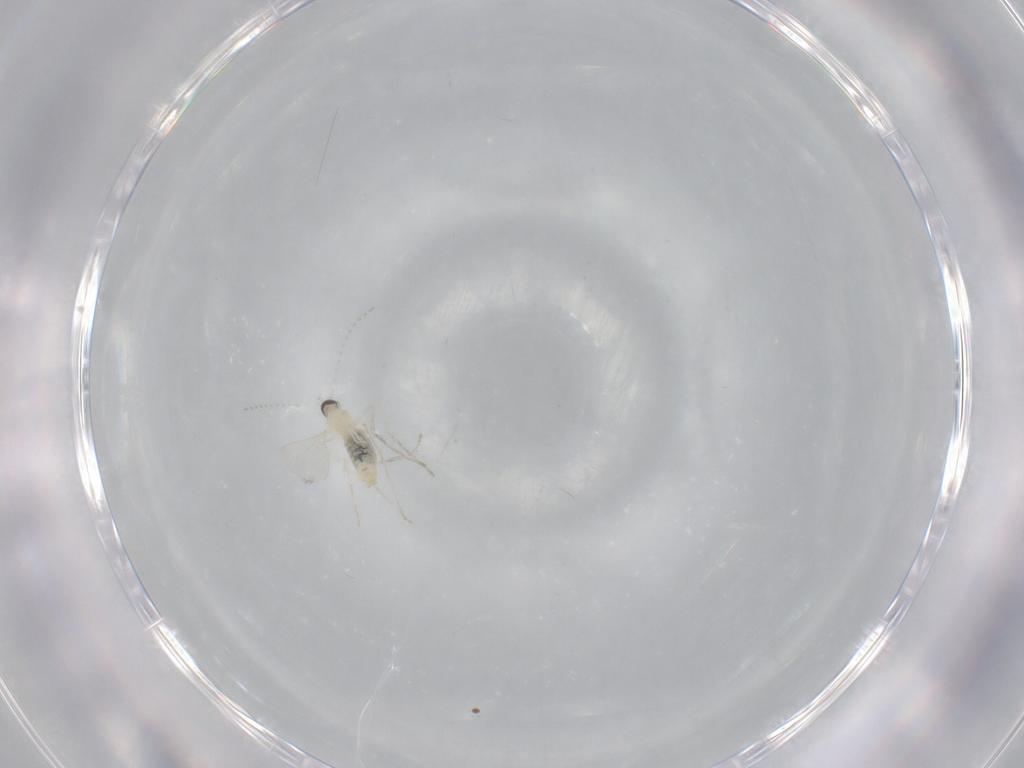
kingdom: Animalia
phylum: Arthropoda
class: Insecta
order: Diptera
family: Cecidomyiidae
